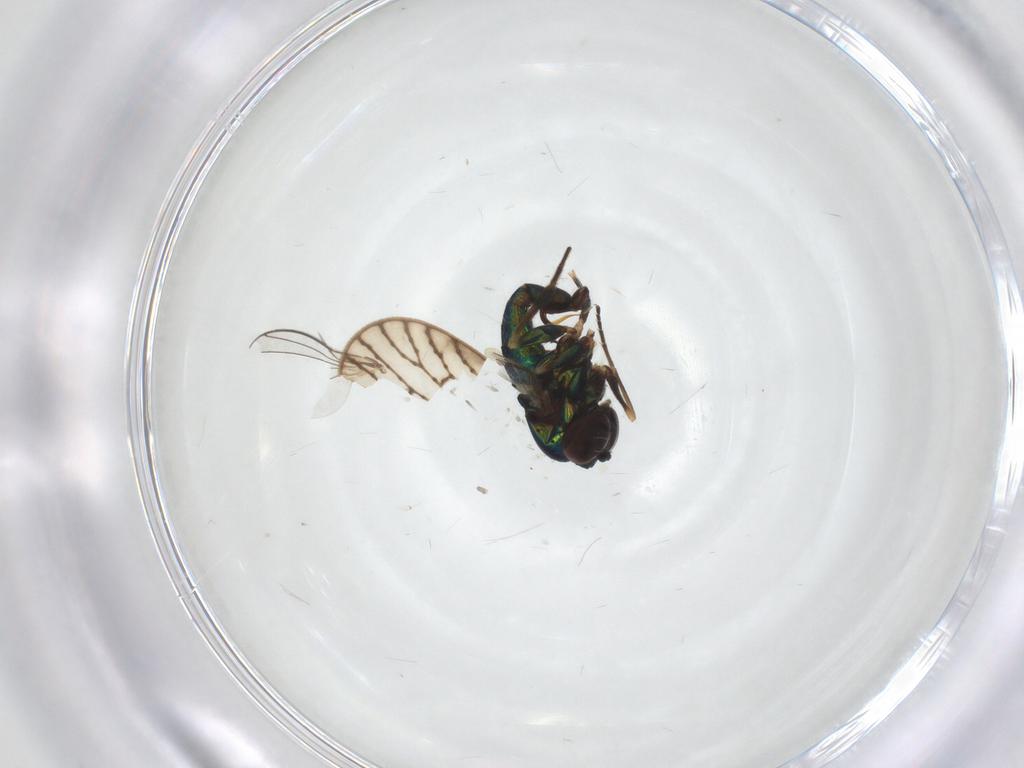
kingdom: Animalia
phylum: Arthropoda
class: Insecta
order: Diptera
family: Dolichopodidae
